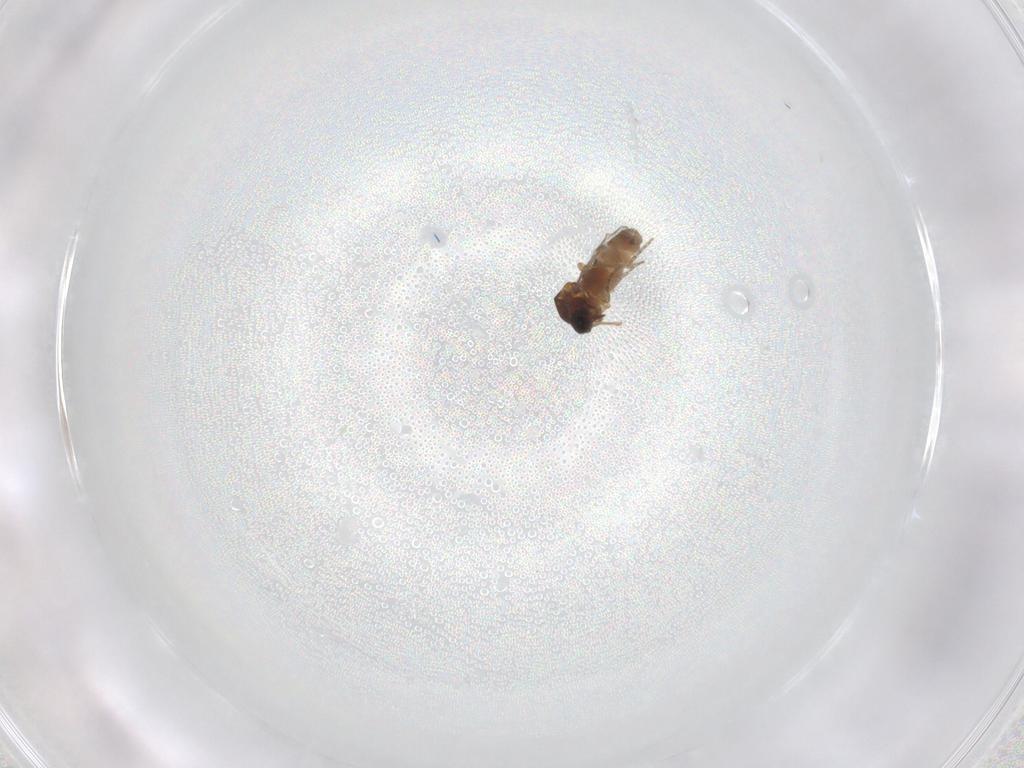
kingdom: Animalia
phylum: Arthropoda
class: Insecta
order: Diptera
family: Ceratopogonidae
